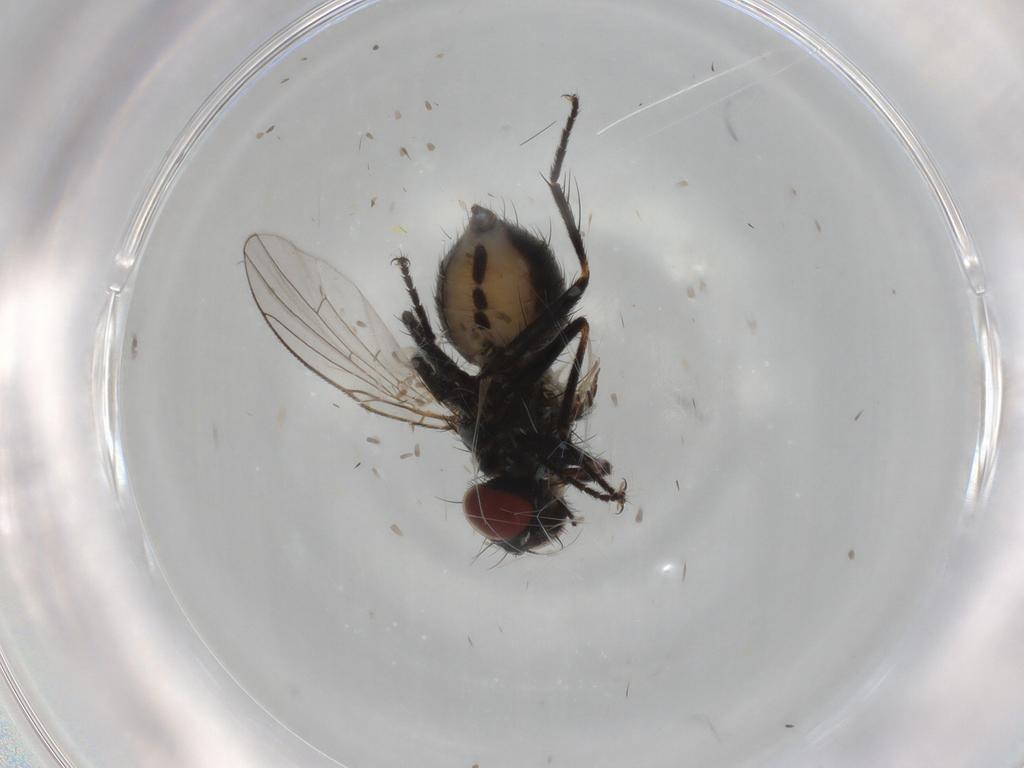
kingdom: Animalia
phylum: Arthropoda
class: Insecta
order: Diptera
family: Muscidae
